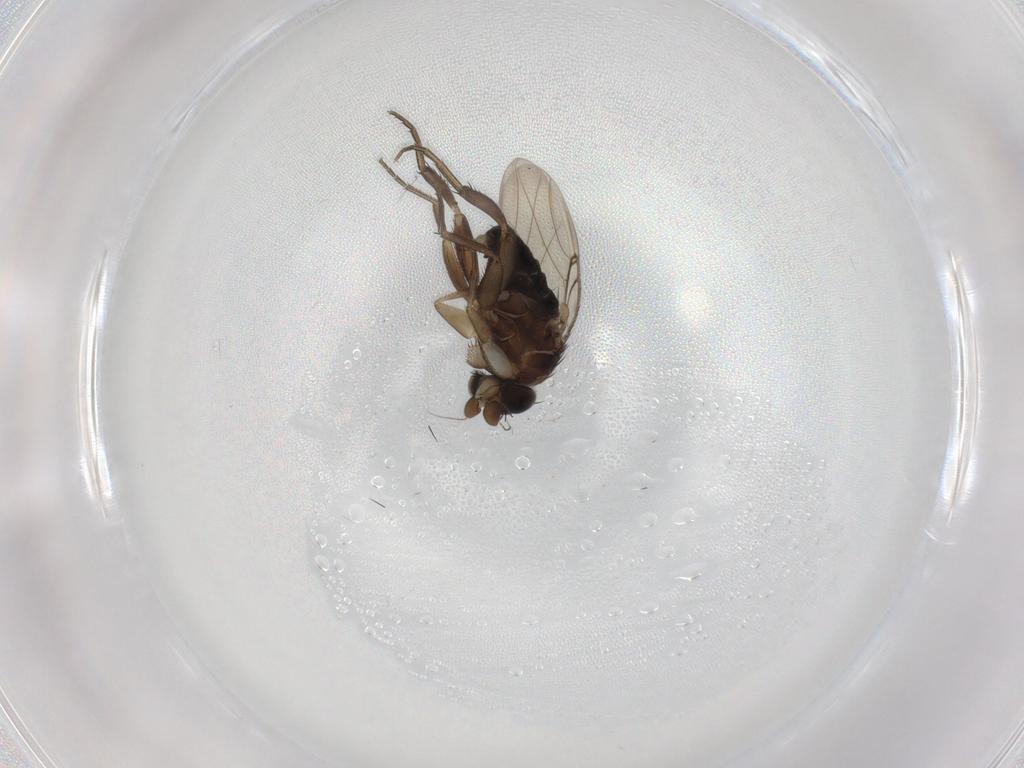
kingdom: Animalia
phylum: Arthropoda
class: Insecta
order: Diptera
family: Phoridae
